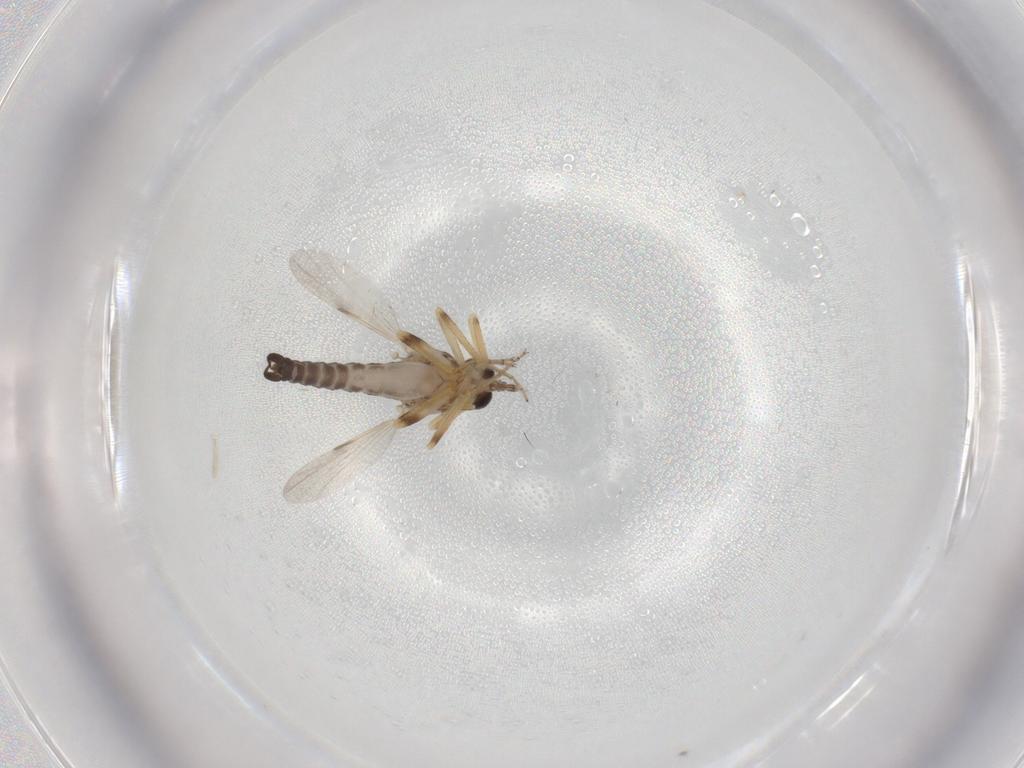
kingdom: Animalia
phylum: Arthropoda
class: Insecta
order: Diptera
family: Ceratopogonidae
